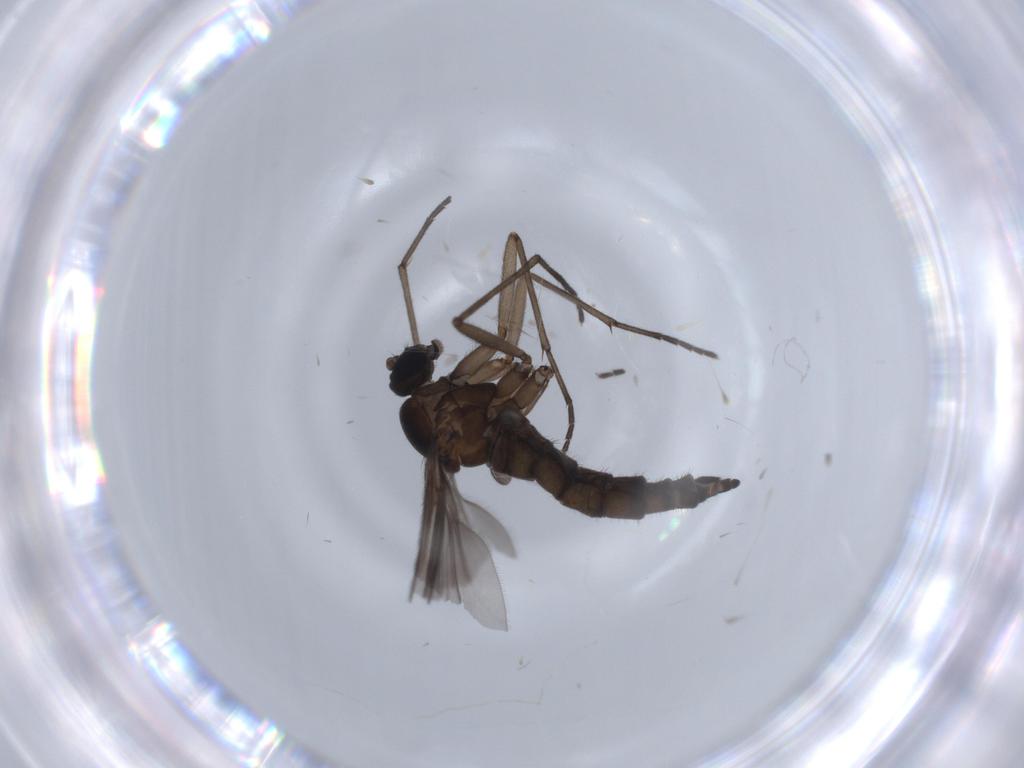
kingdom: Animalia
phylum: Arthropoda
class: Insecta
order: Diptera
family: Sciaridae
